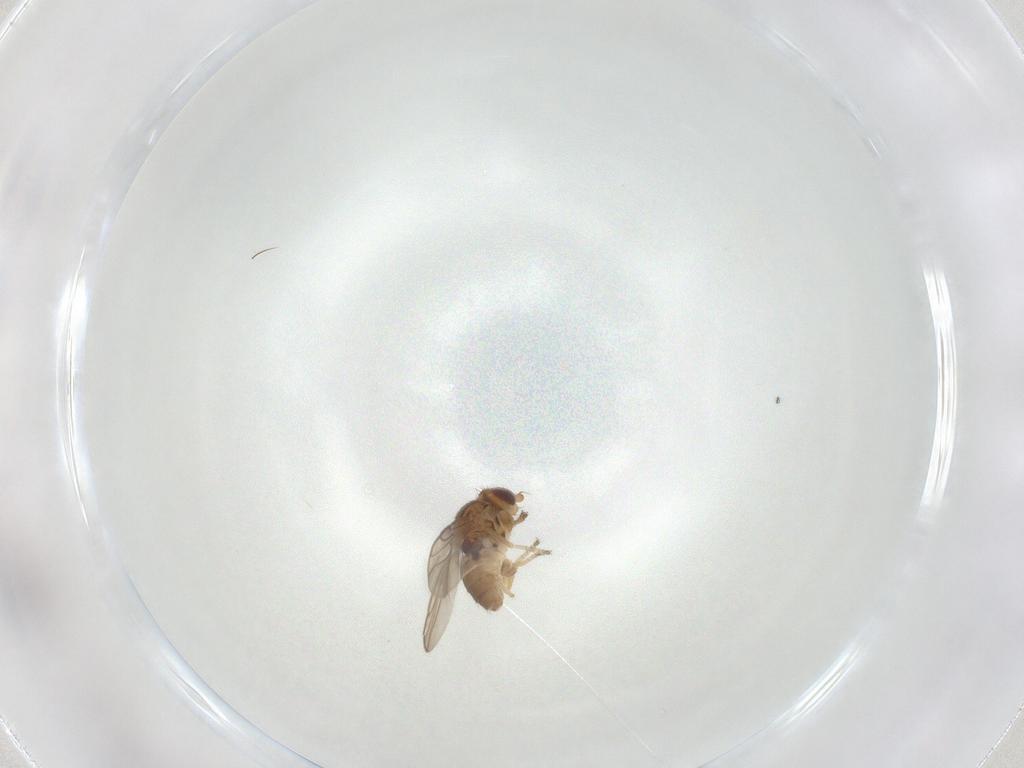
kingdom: Animalia
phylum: Arthropoda
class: Insecta
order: Diptera
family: Chloropidae
